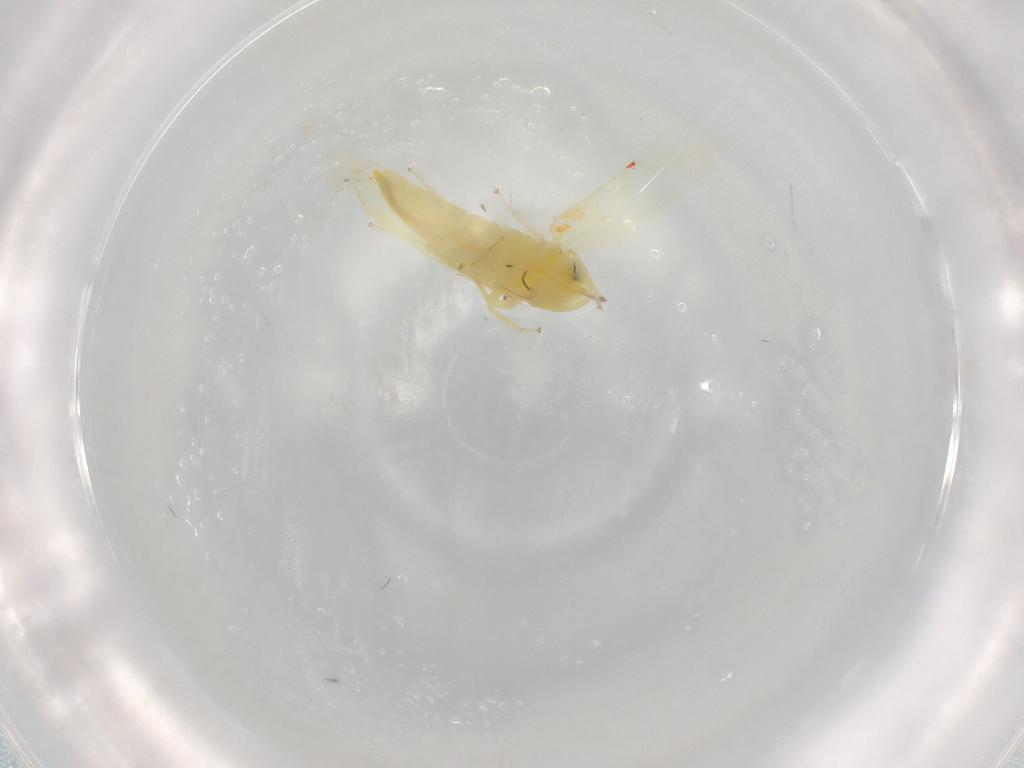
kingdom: Animalia
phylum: Arthropoda
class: Insecta
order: Hemiptera
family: Cicadellidae
